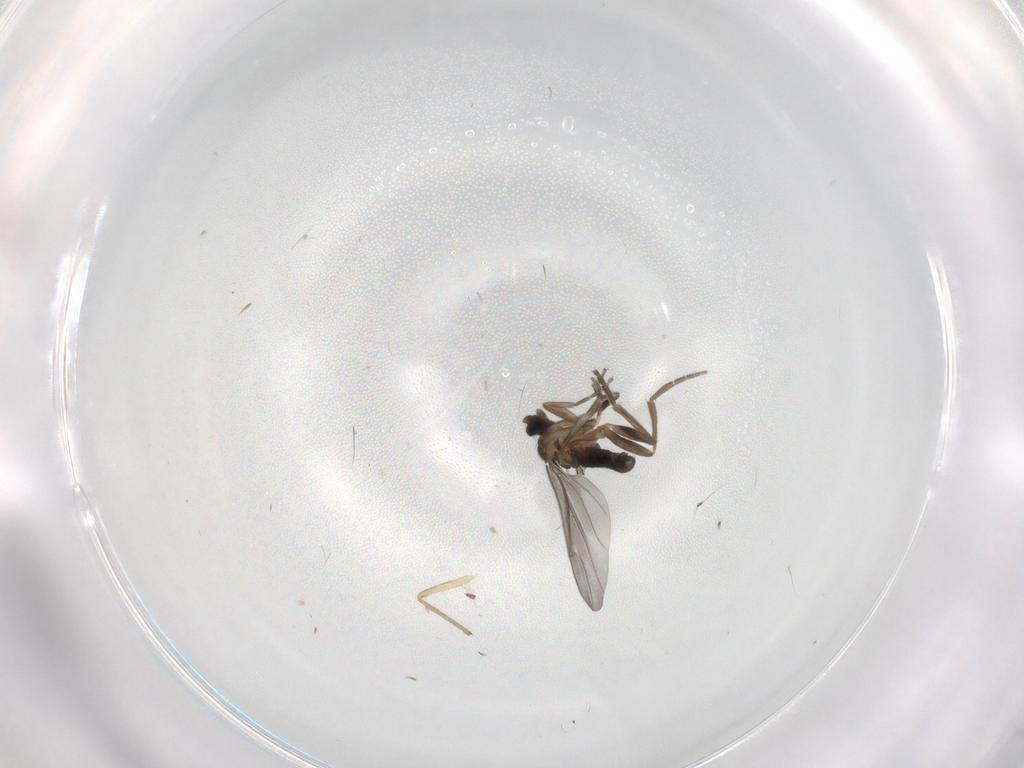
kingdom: Animalia
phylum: Arthropoda
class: Insecta
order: Diptera
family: Phoridae
